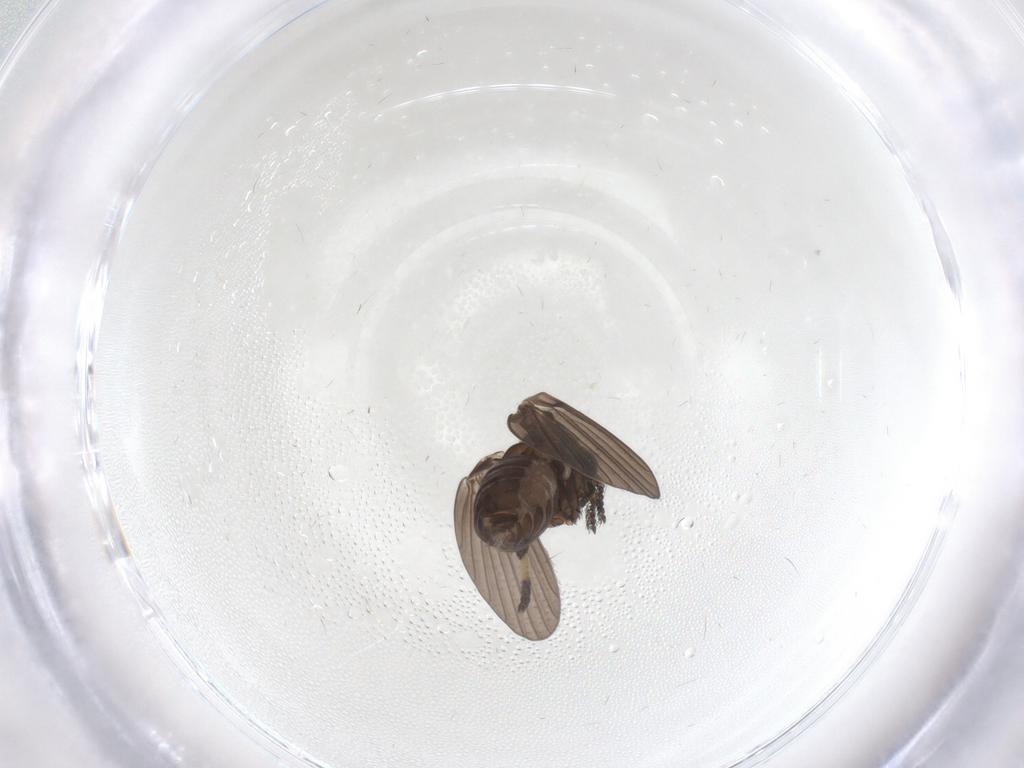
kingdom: Animalia
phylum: Arthropoda
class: Insecta
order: Diptera
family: Psychodidae
